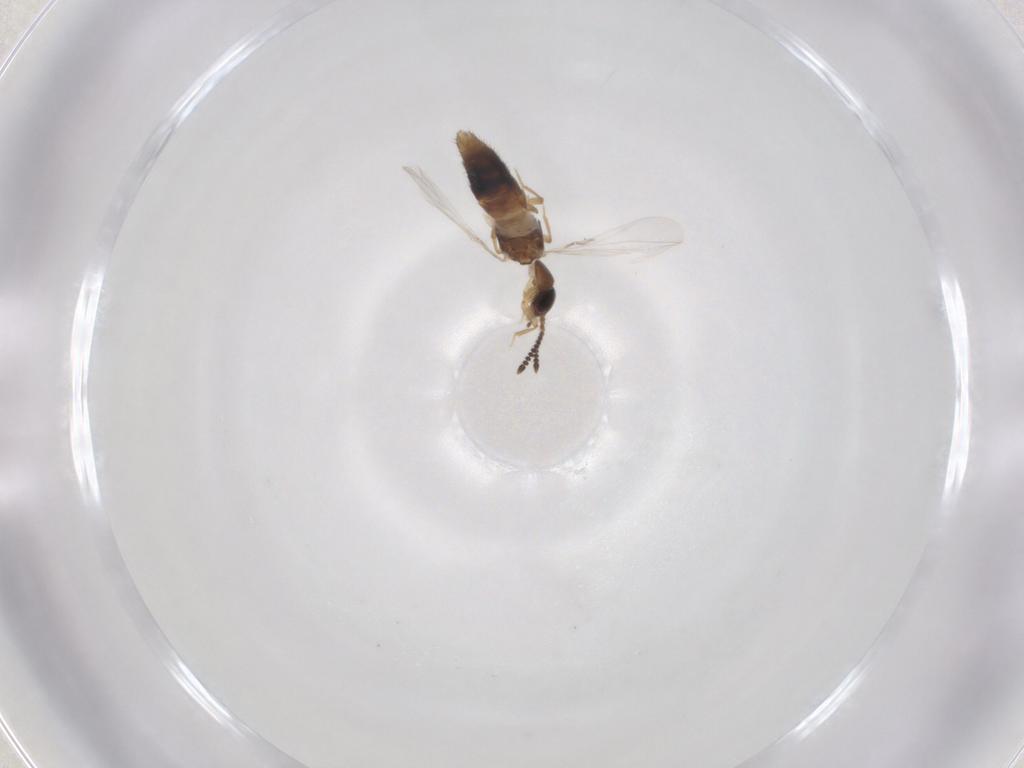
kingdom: Animalia
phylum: Arthropoda
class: Insecta
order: Coleoptera
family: Staphylinidae
